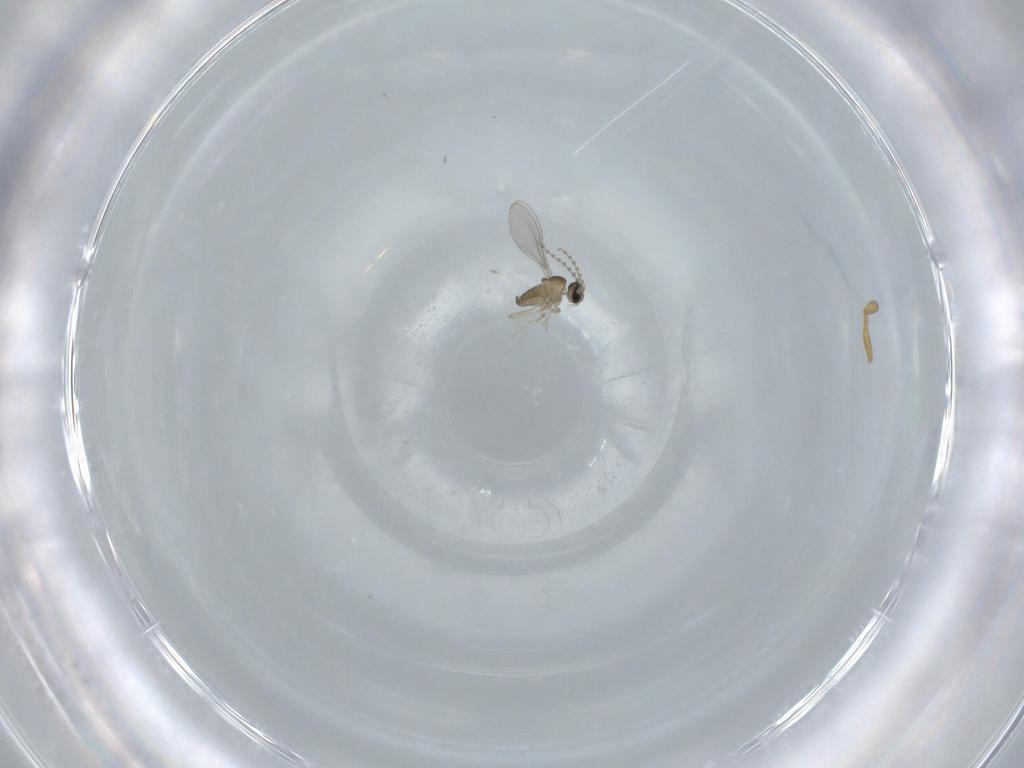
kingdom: Animalia
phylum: Arthropoda
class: Insecta
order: Diptera
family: Cecidomyiidae
